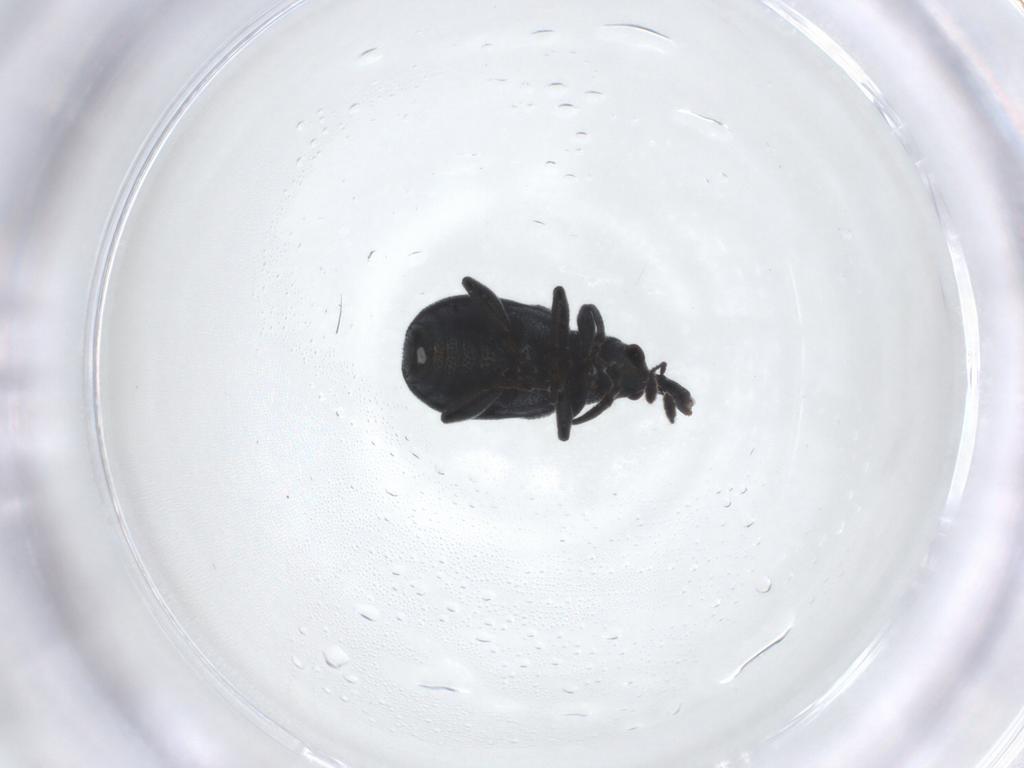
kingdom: Animalia
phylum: Arthropoda
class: Insecta
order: Coleoptera
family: Attelabidae
